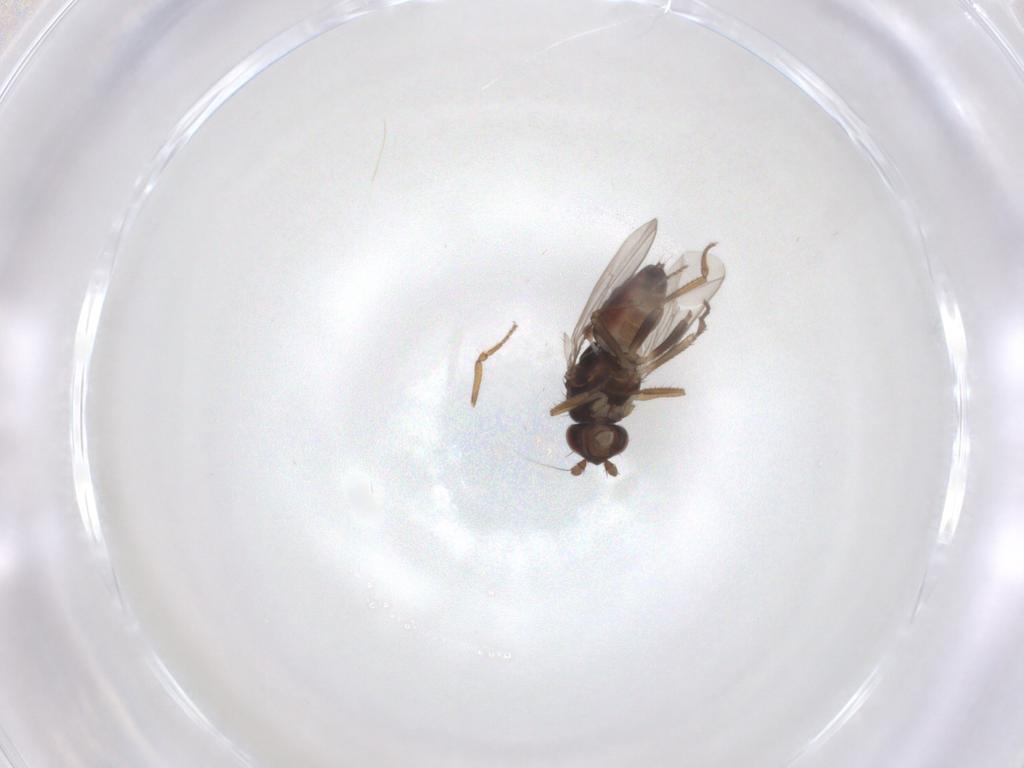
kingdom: Animalia
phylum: Arthropoda
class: Insecta
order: Diptera
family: Sphaeroceridae
